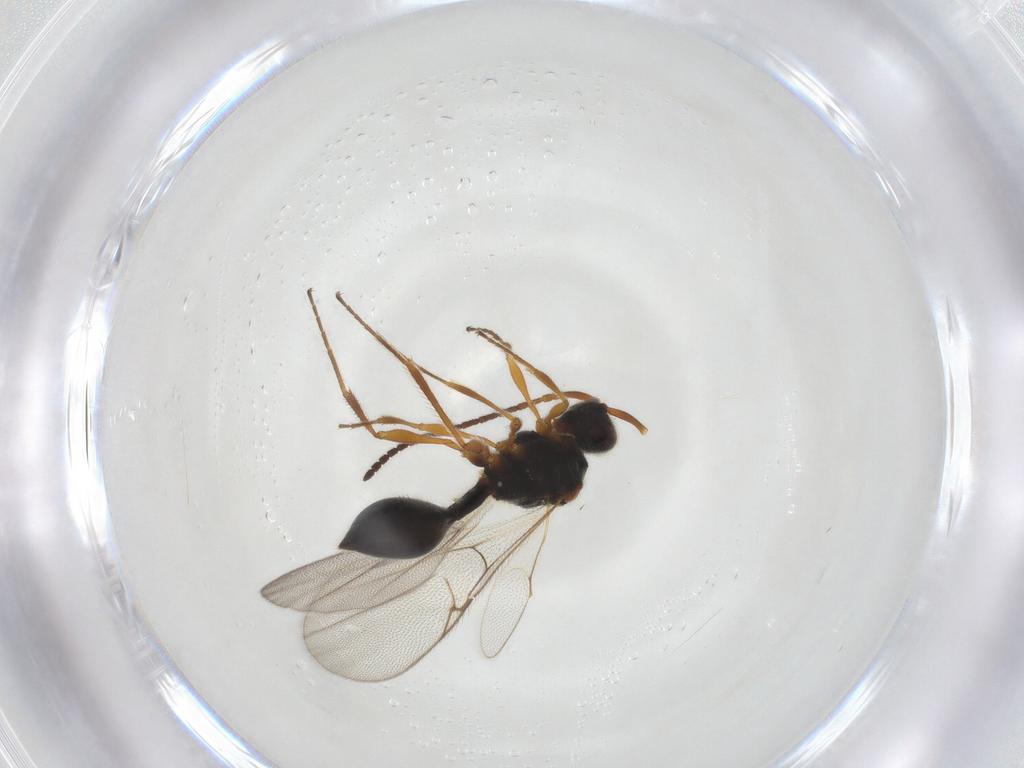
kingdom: Animalia
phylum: Arthropoda
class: Insecta
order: Hymenoptera
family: Diapriidae
